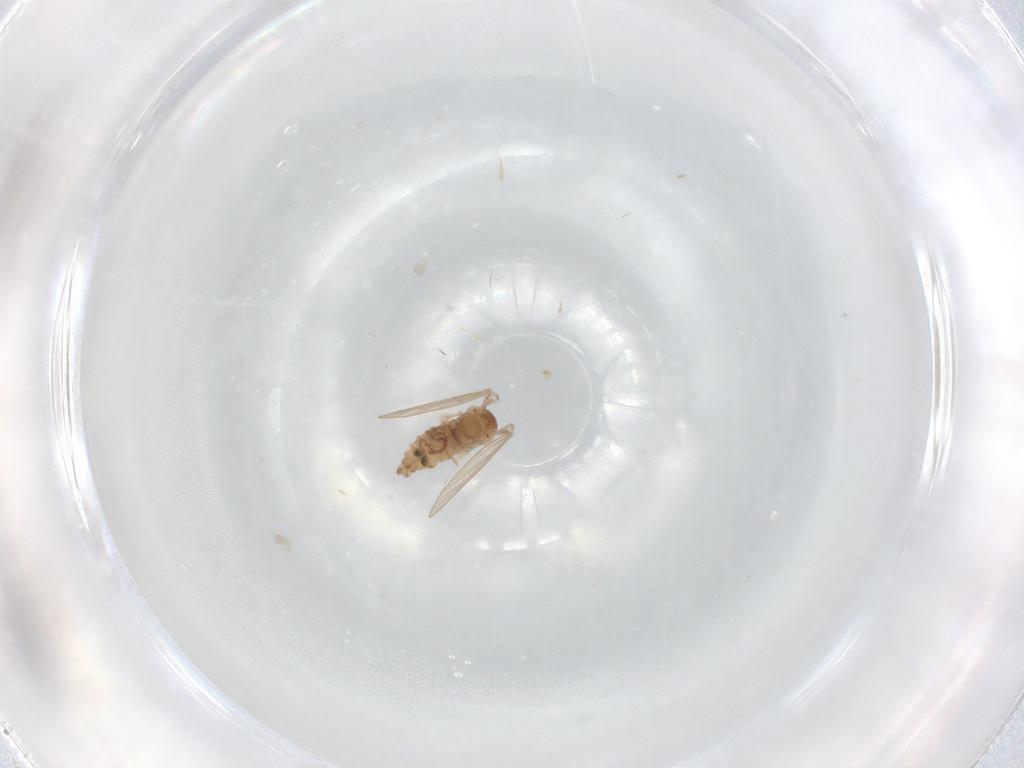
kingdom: Animalia
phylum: Arthropoda
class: Insecta
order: Diptera
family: Psychodidae
